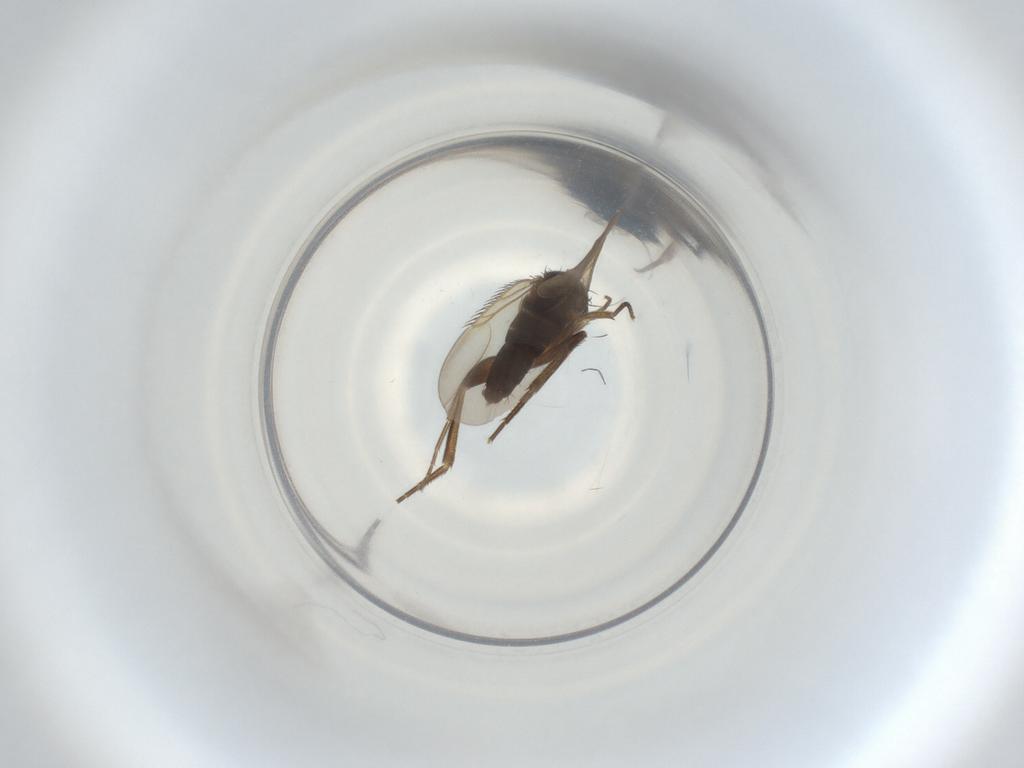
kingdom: Animalia
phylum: Arthropoda
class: Insecta
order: Diptera
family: Phoridae
